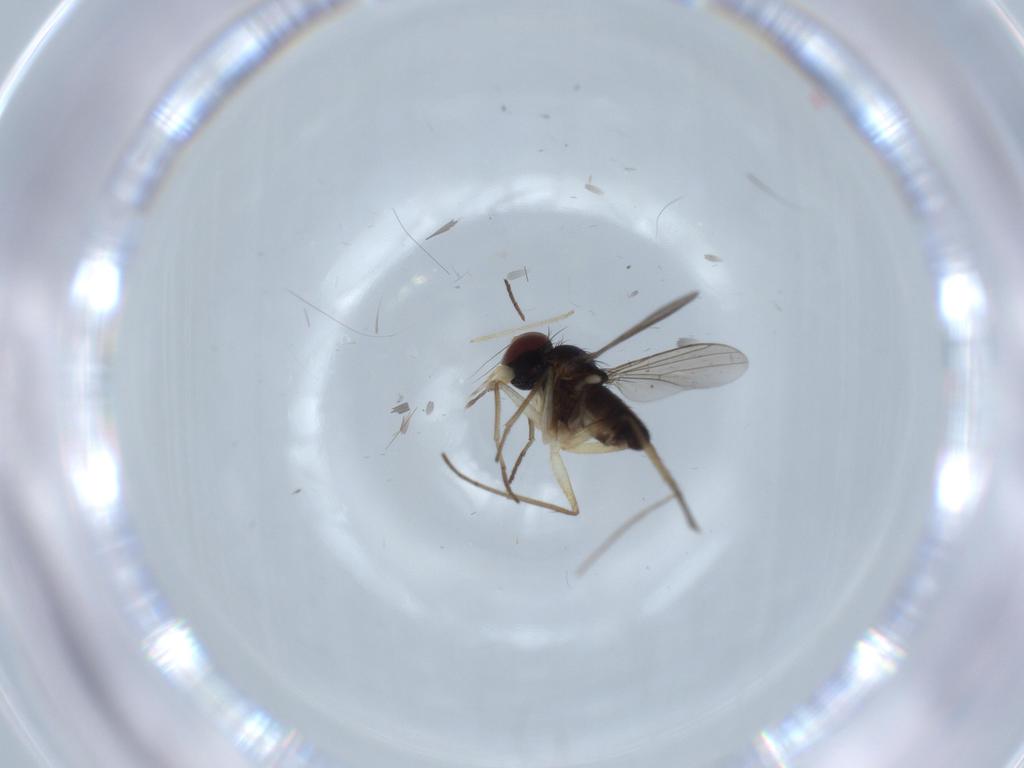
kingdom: Animalia
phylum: Arthropoda
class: Insecta
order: Diptera
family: Dolichopodidae
